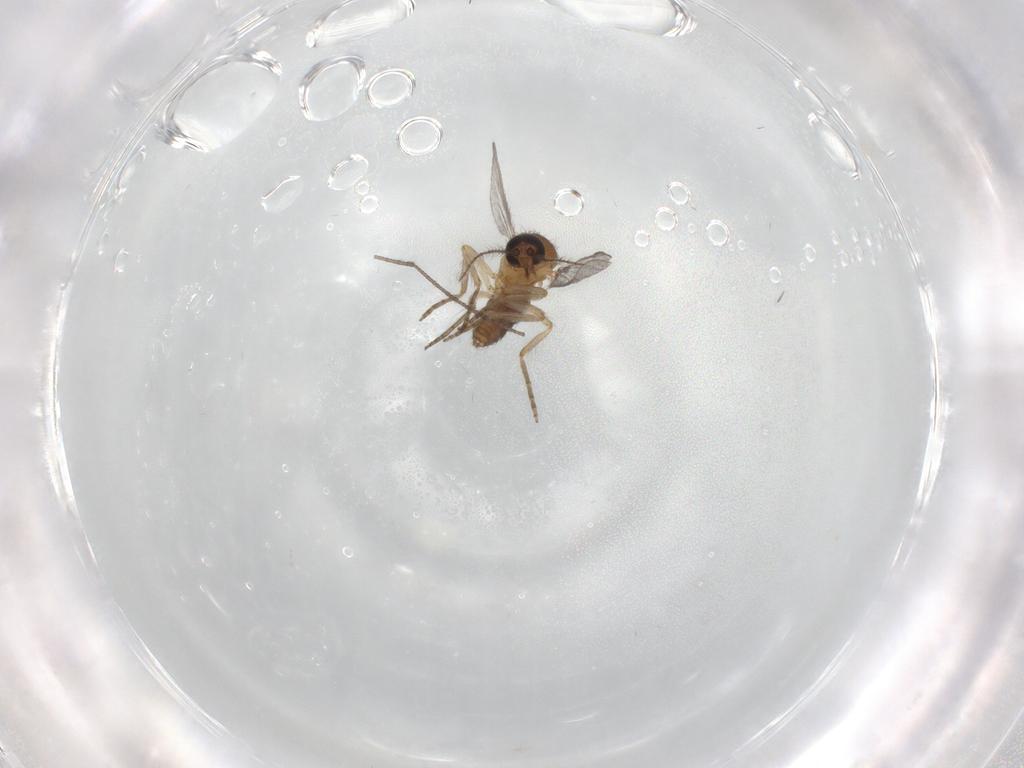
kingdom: Animalia
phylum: Arthropoda
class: Insecta
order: Diptera
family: Ceratopogonidae
